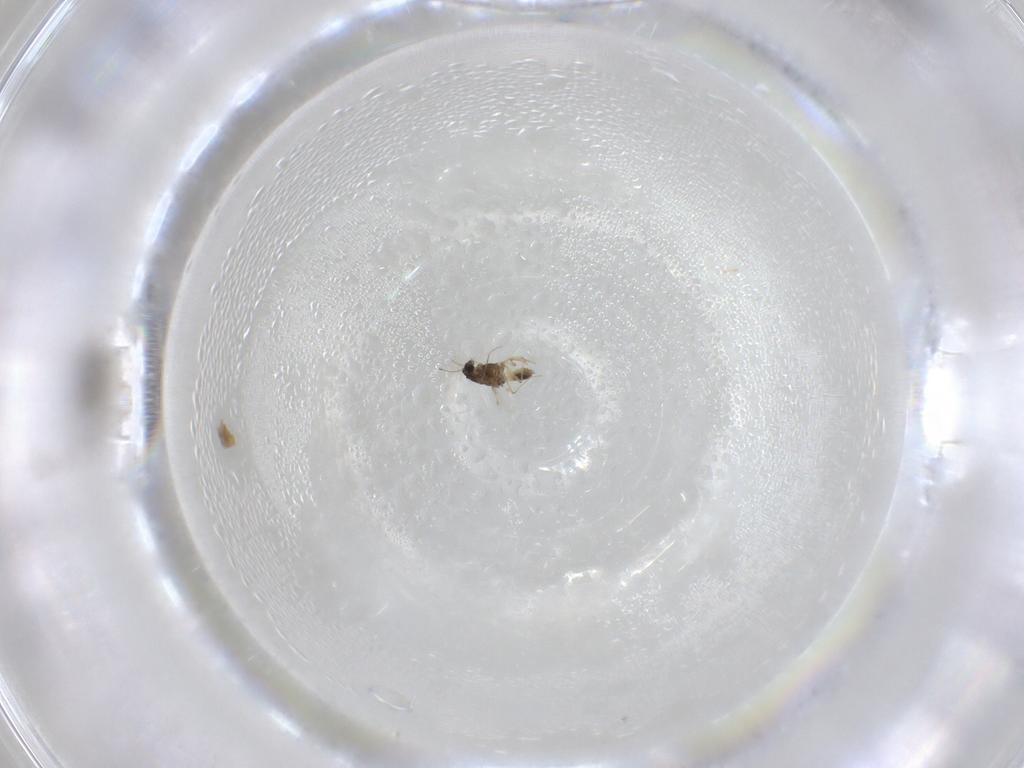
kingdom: Animalia
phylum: Arthropoda
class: Insecta
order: Diptera
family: Chironomidae
